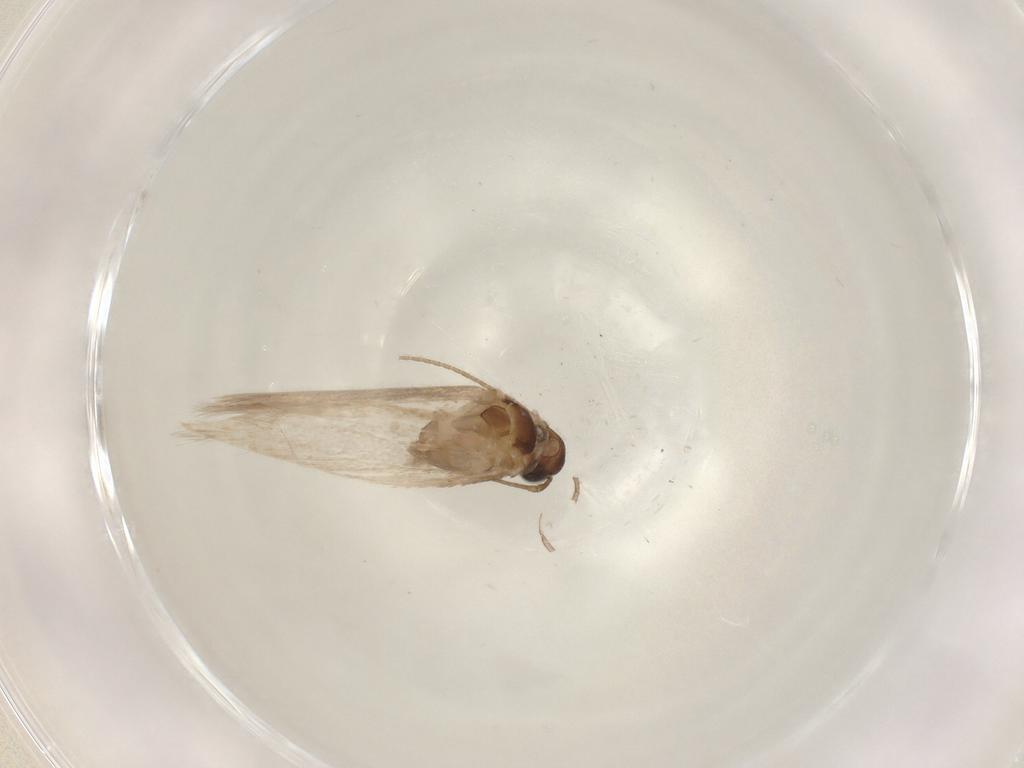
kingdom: Animalia
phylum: Arthropoda
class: Insecta
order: Lepidoptera
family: Gelechiidae
